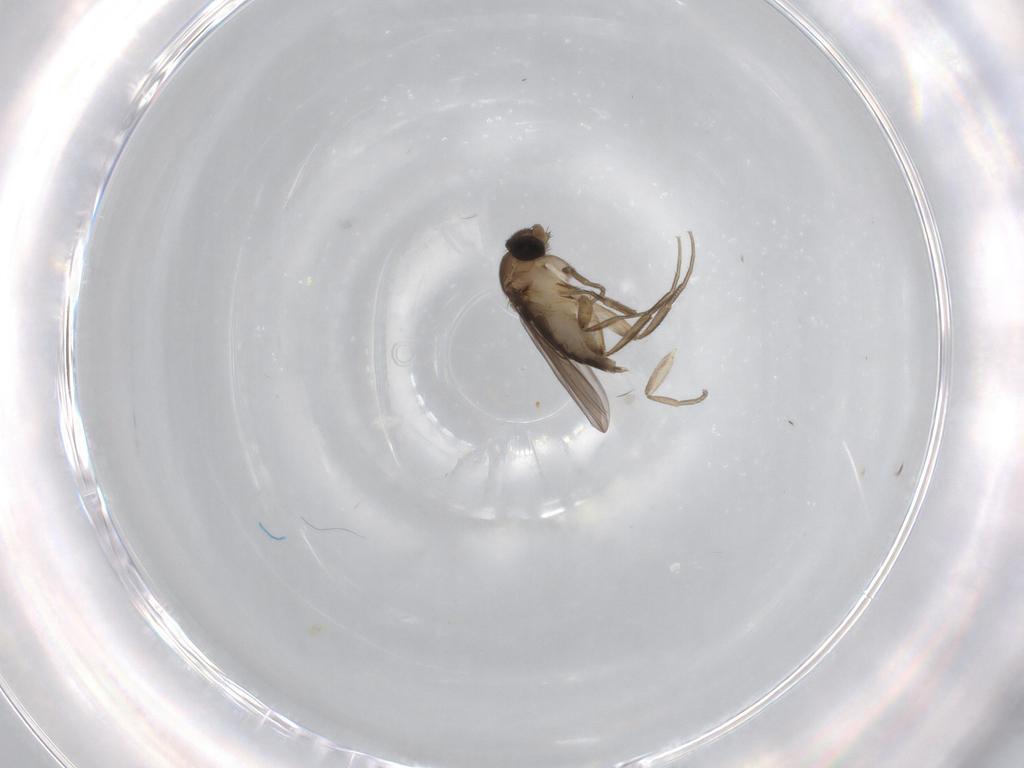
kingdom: Animalia
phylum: Arthropoda
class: Insecta
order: Diptera
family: Phoridae
